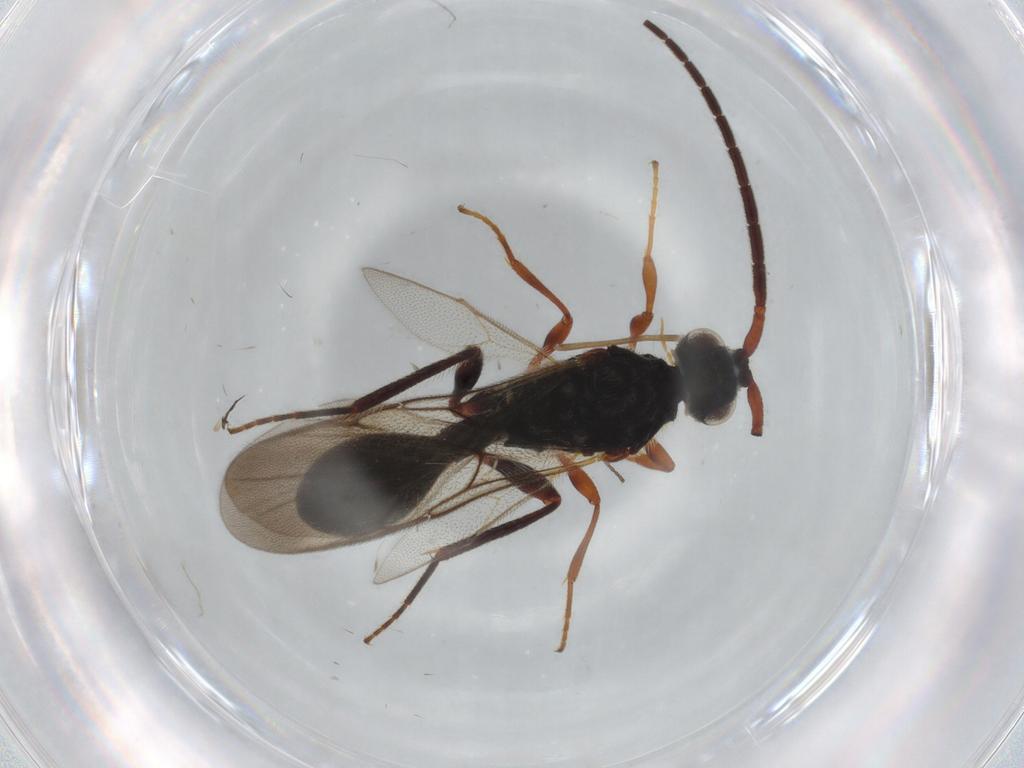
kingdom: Animalia
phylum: Arthropoda
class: Insecta
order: Hymenoptera
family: Diapriidae
